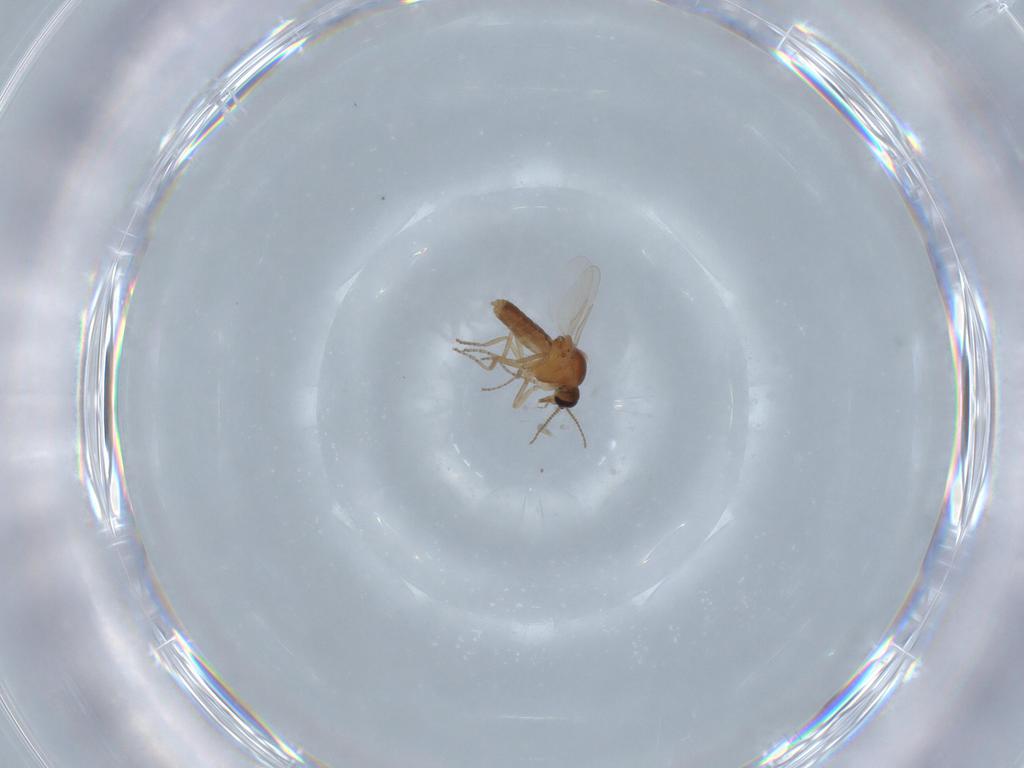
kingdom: Animalia
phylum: Arthropoda
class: Insecta
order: Diptera
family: Ceratopogonidae
